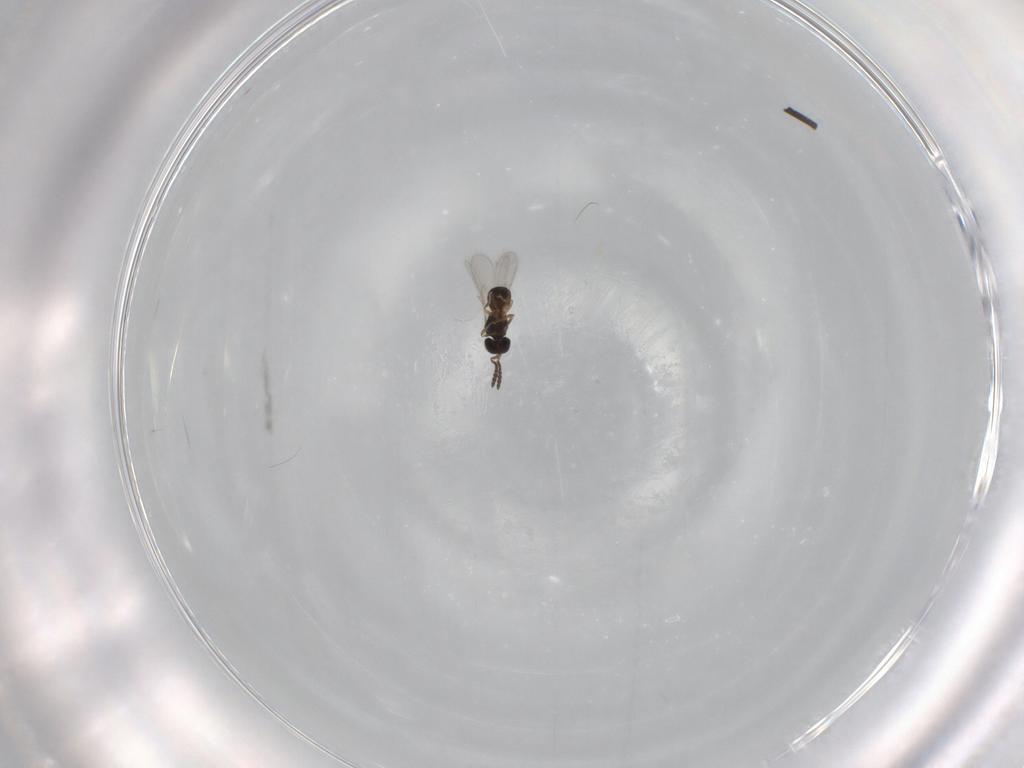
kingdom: Animalia
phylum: Arthropoda
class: Insecta
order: Hymenoptera
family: Scelionidae
